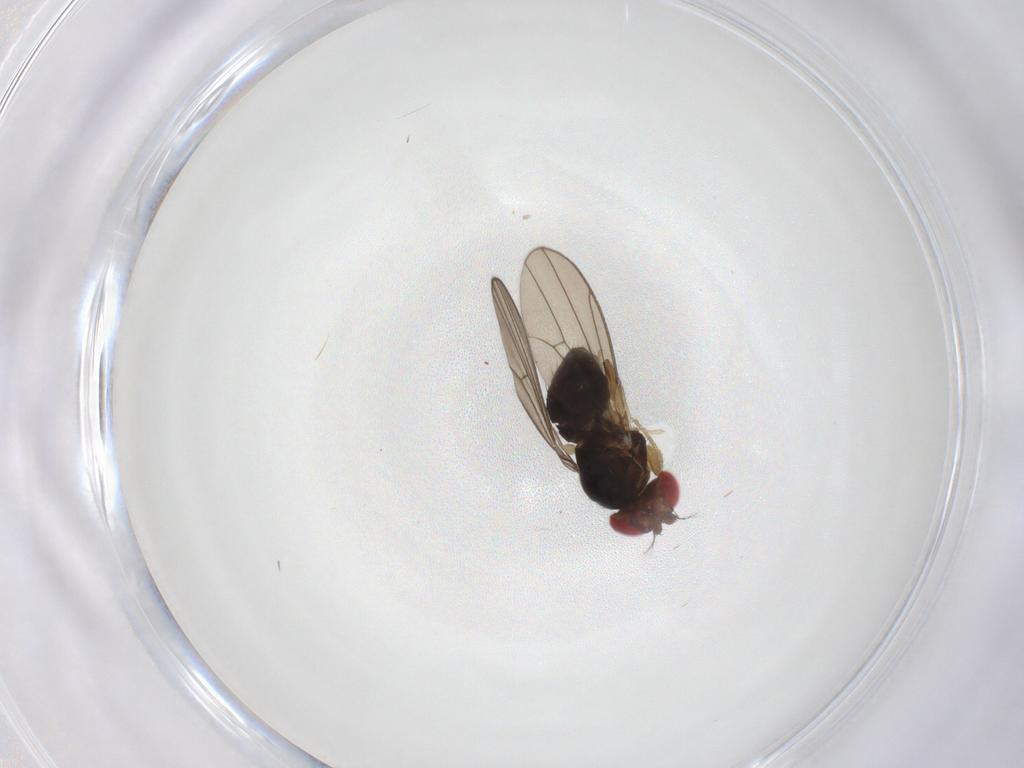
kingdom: Animalia
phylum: Arthropoda
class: Insecta
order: Diptera
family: Drosophilidae
